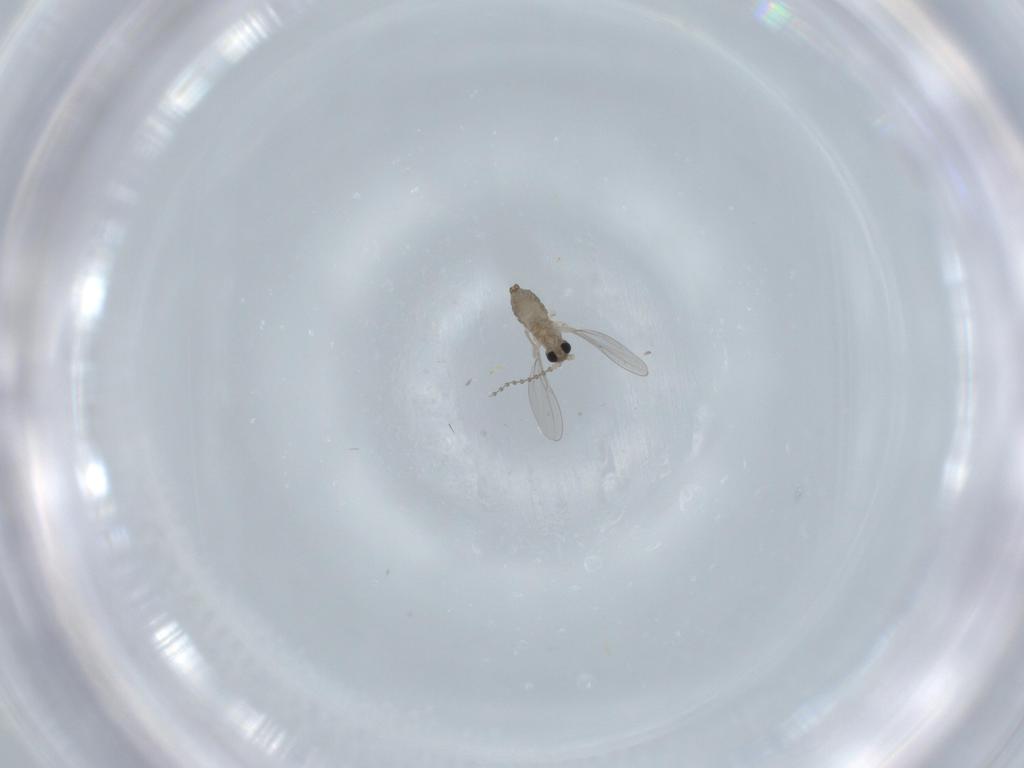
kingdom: Animalia
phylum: Arthropoda
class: Insecta
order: Diptera
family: Cecidomyiidae
